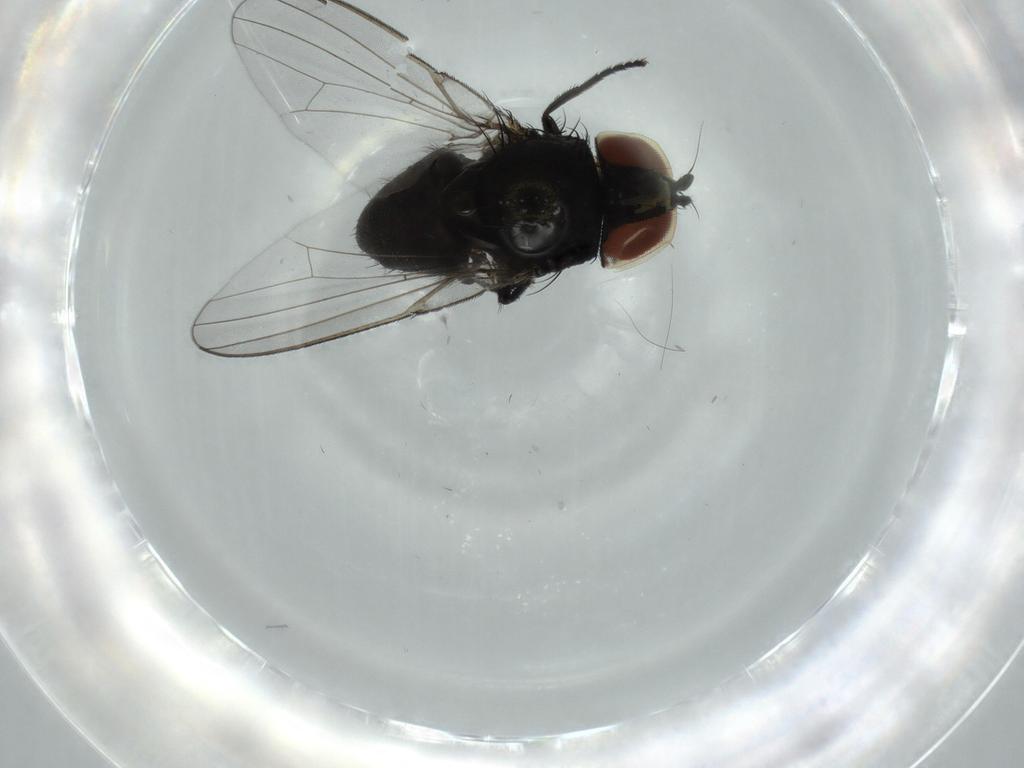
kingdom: Animalia
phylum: Arthropoda
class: Insecta
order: Diptera
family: Milichiidae
